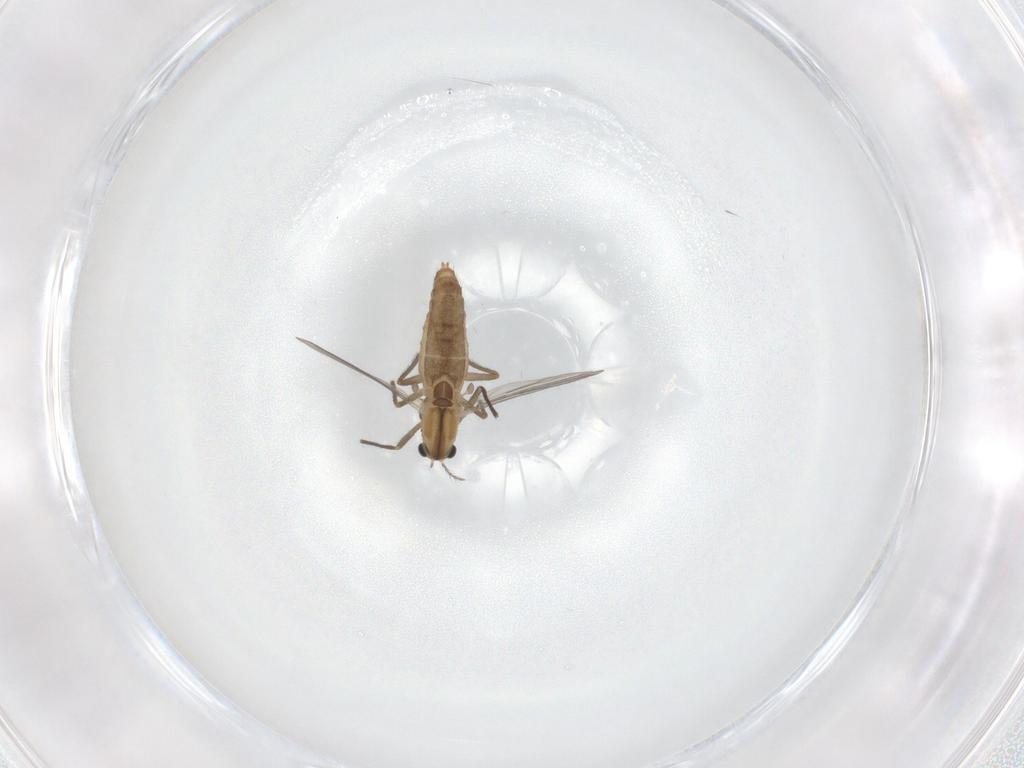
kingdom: Animalia
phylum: Arthropoda
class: Insecta
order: Diptera
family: Chironomidae
